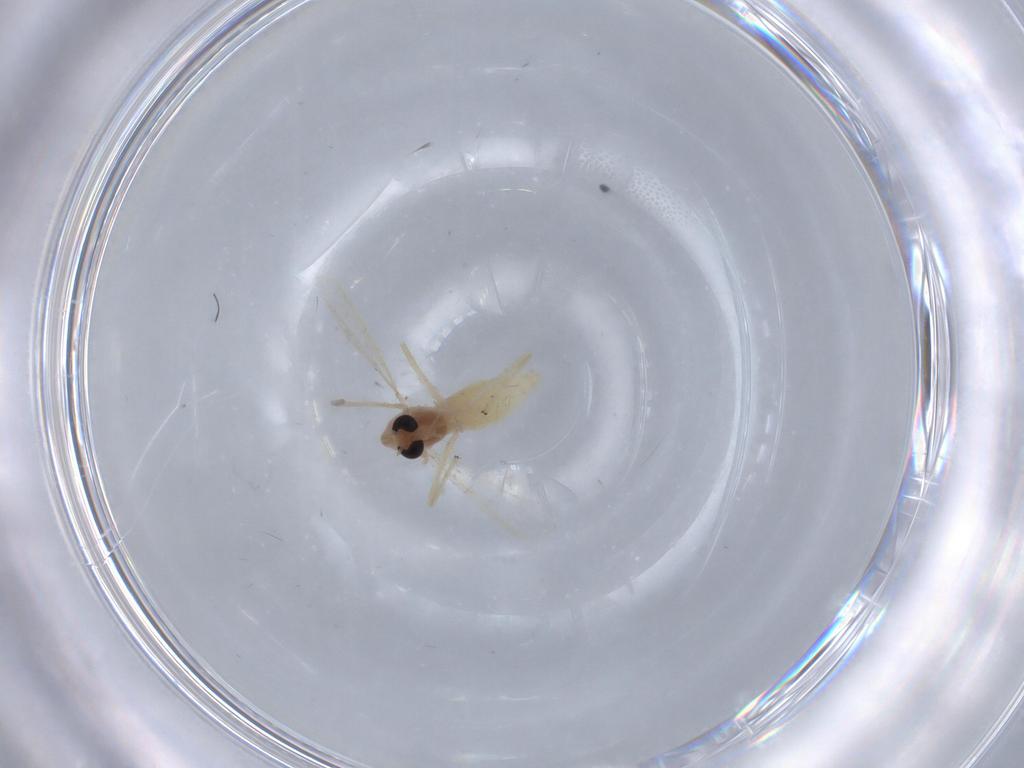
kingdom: Animalia
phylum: Arthropoda
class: Insecta
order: Diptera
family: Chironomidae
